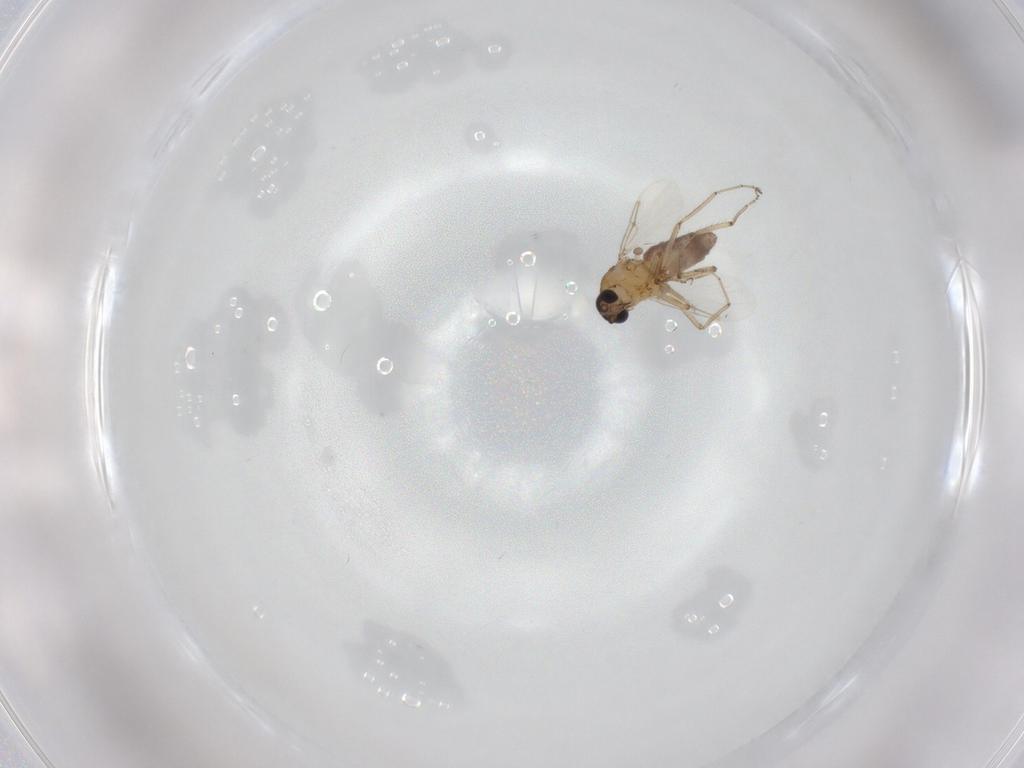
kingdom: Animalia
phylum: Arthropoda
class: Insecta
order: Diptera
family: Ceratopogonidae
